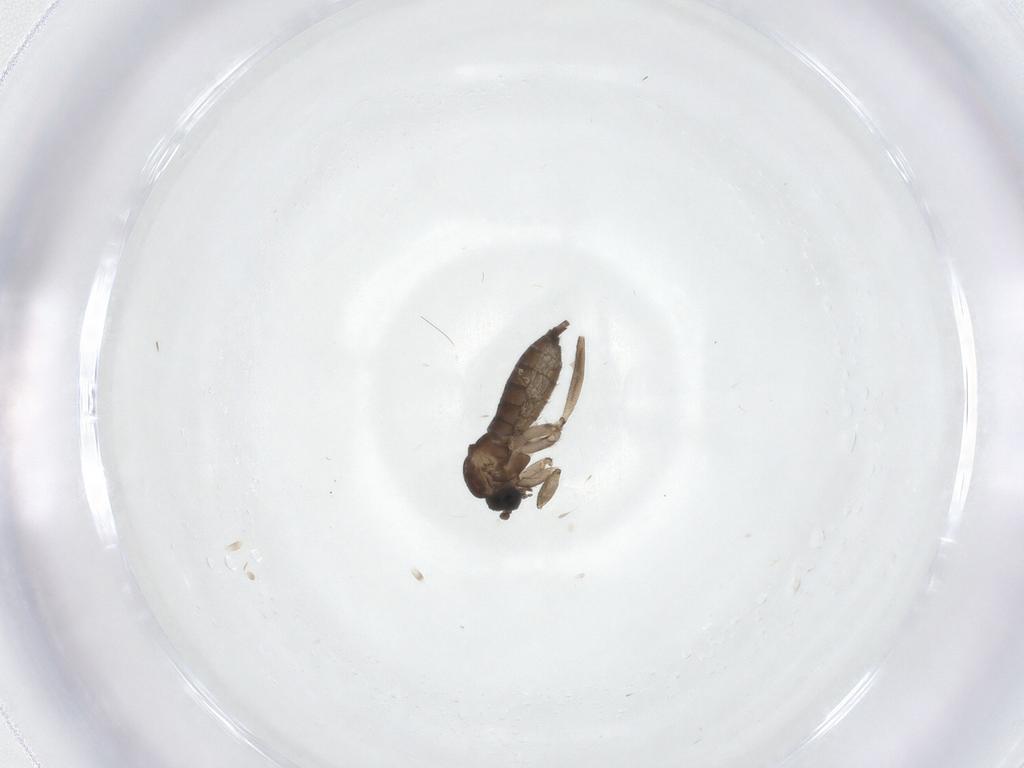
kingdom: Animalia
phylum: Arthropoda
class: Insecta
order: Diptera
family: Sciaridae
